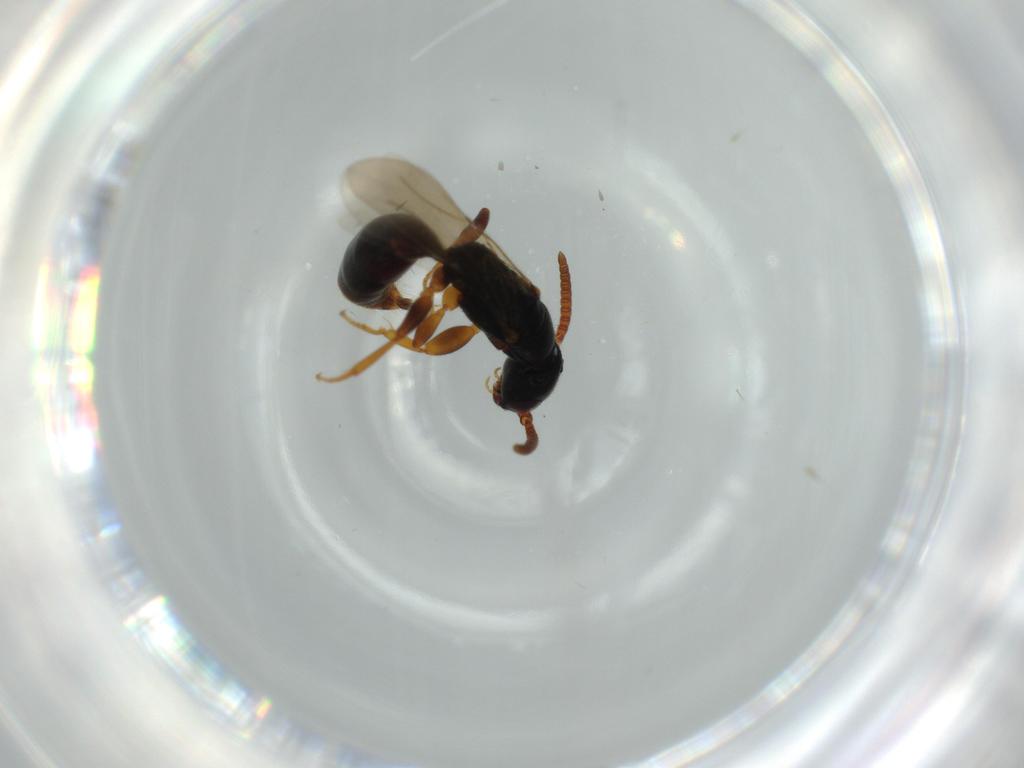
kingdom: Animalia
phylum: Arthropoda
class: Insecta
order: Hymenoptera
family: Bethylidae
